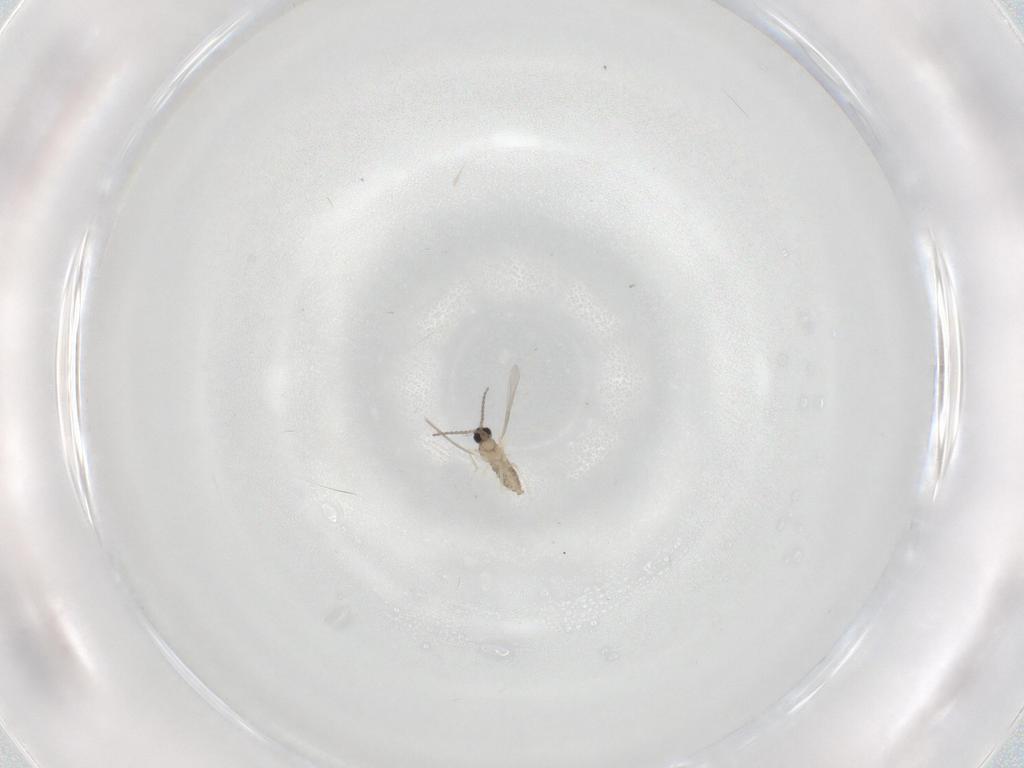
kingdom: Animalia
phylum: Arthropoda
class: Insecta
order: Diptera
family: Cecidomyiidae
